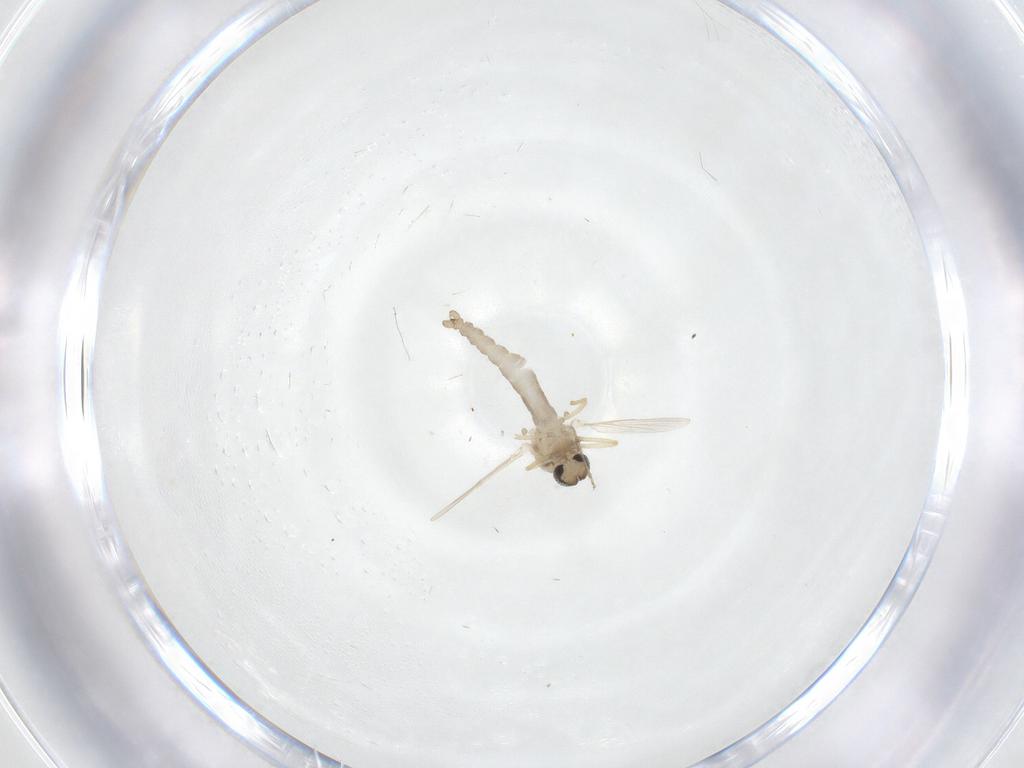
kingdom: Animalia
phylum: Arthropoda
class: Insecta
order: Diptera
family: Ceratopogonidae
